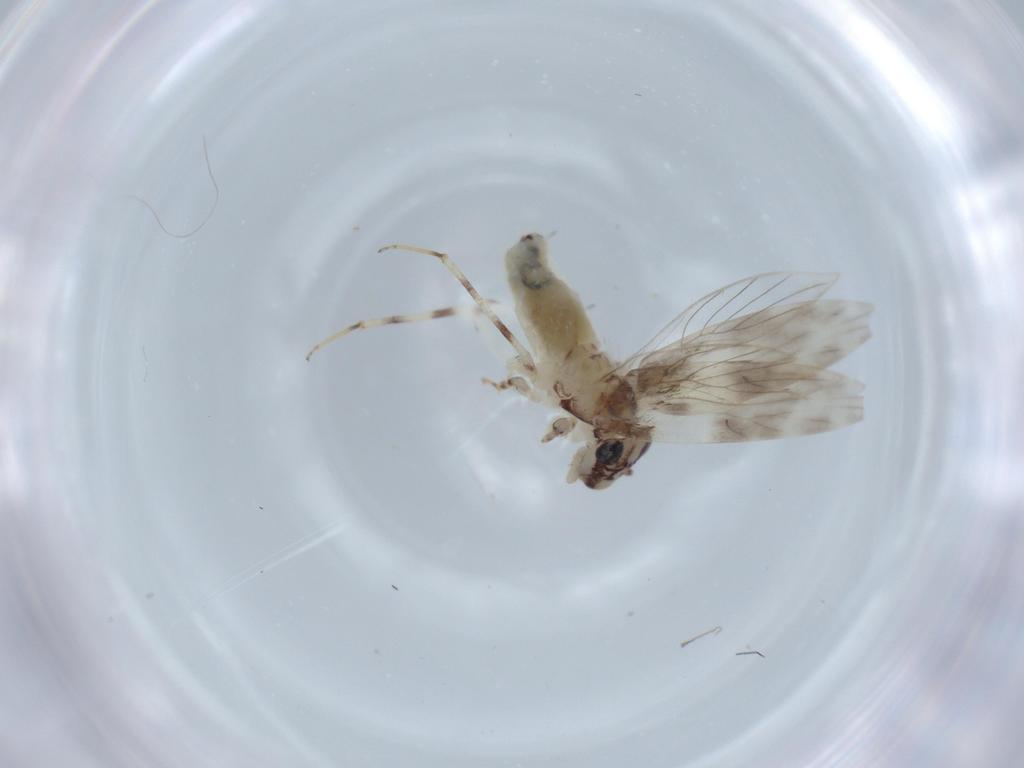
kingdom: Animalia
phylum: Arthropoda
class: Insecta
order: Psocodea
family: Lepidopsocidae
